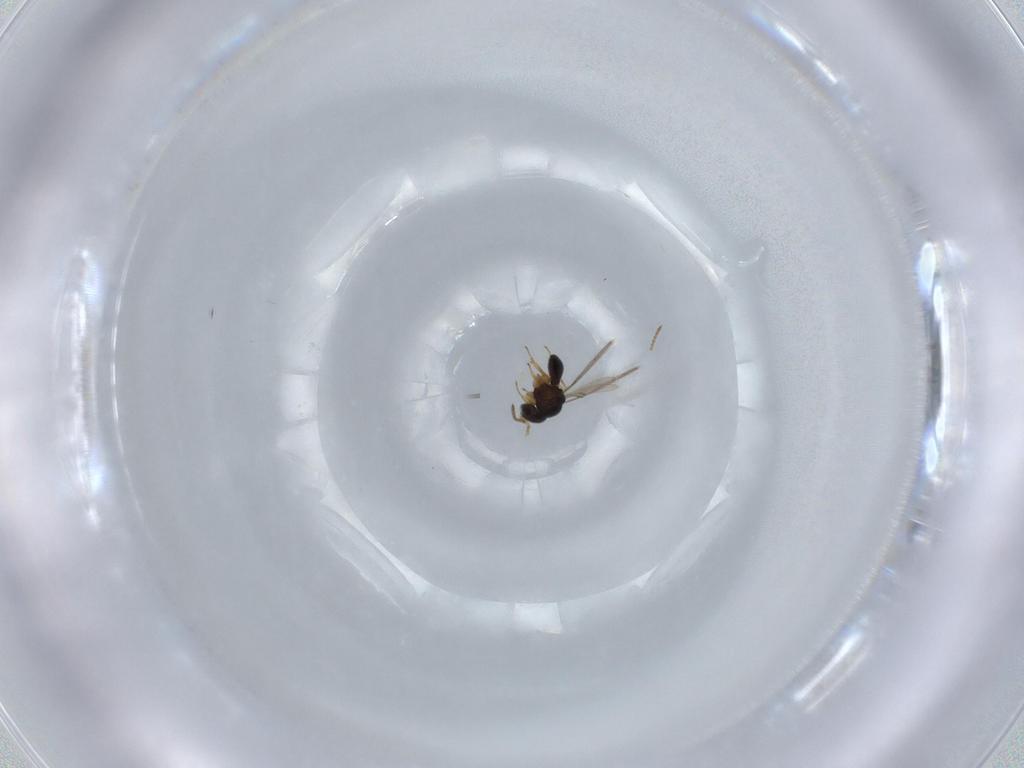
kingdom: Animalia
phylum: Arthropoda
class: Insecta
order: Hymenoptera
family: Scelionidae
